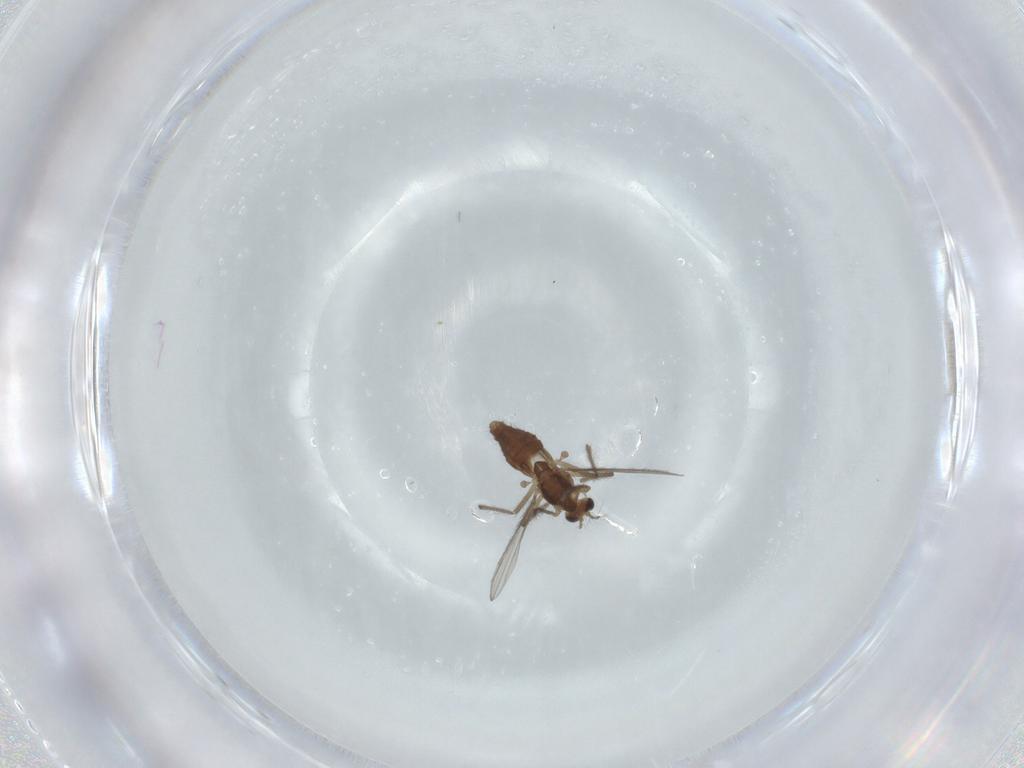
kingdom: Animalia
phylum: Arthropoda
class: Insecta
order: Diptera
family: Chironomidae
